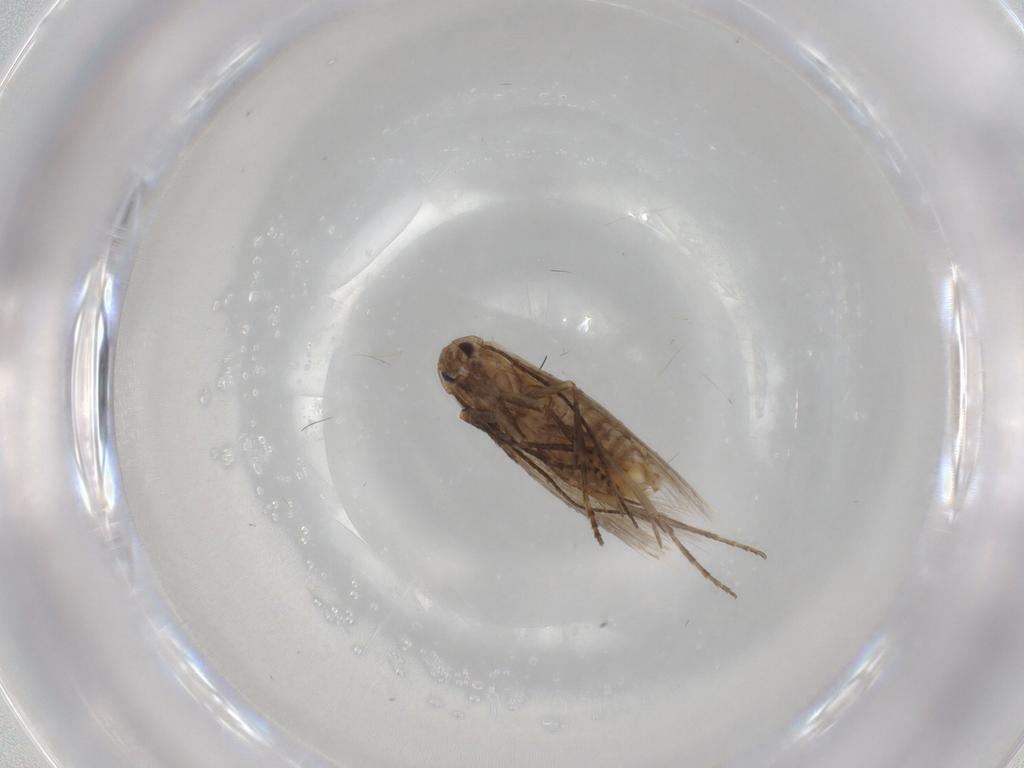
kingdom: Animalia
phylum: Arthropoda
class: Insecta
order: Lepidoptera
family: Bucculatricidae
